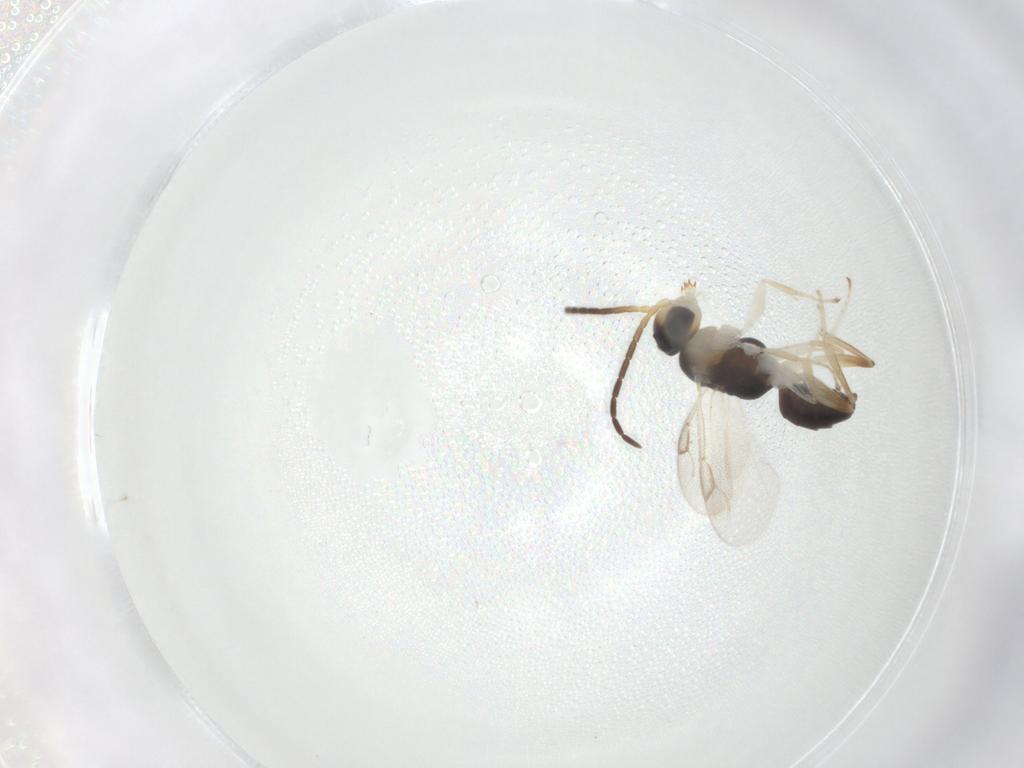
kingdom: Animalia
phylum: Arthropoda
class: Insecta
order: Hymenoptera
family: Dryinidae
